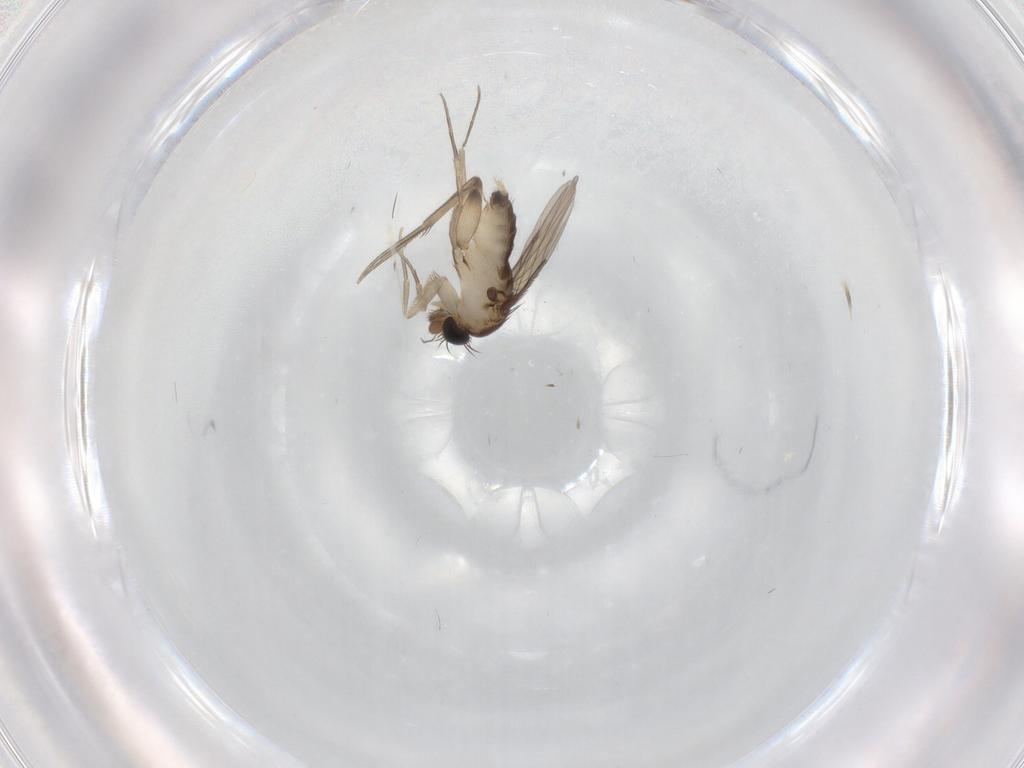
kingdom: Animalia
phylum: Arthropoda
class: Insecta
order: Diptera
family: Phoridae
